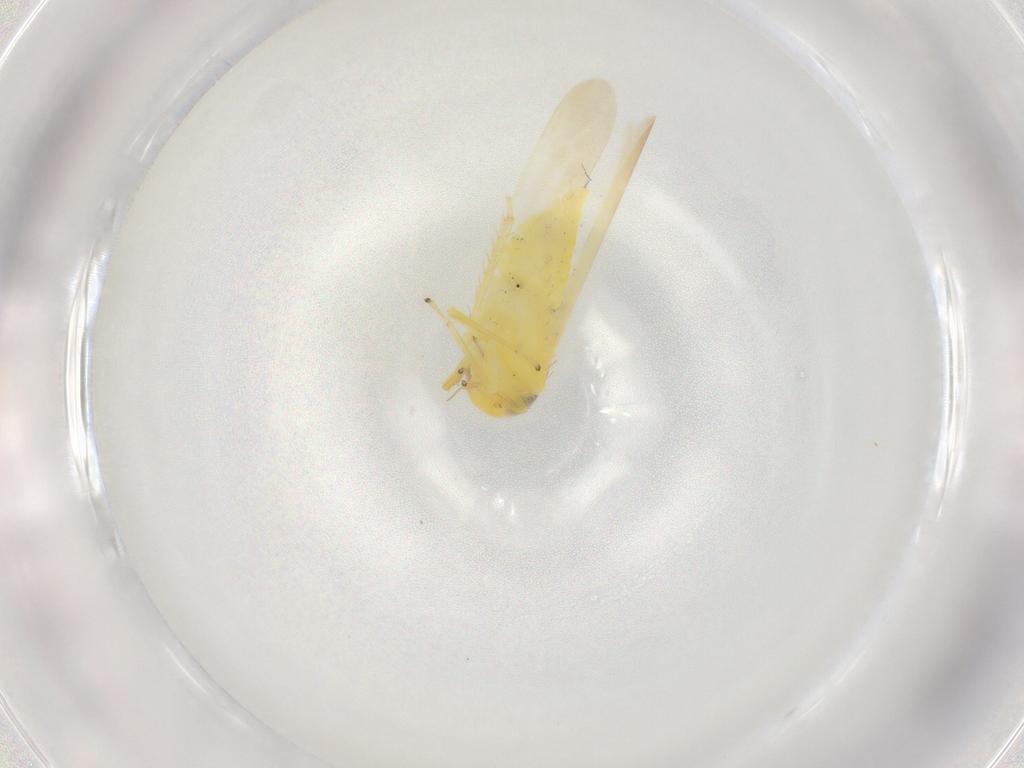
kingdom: Animalia
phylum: Arthropoda
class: Insecta
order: Hemiptera
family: Cicadellidae
